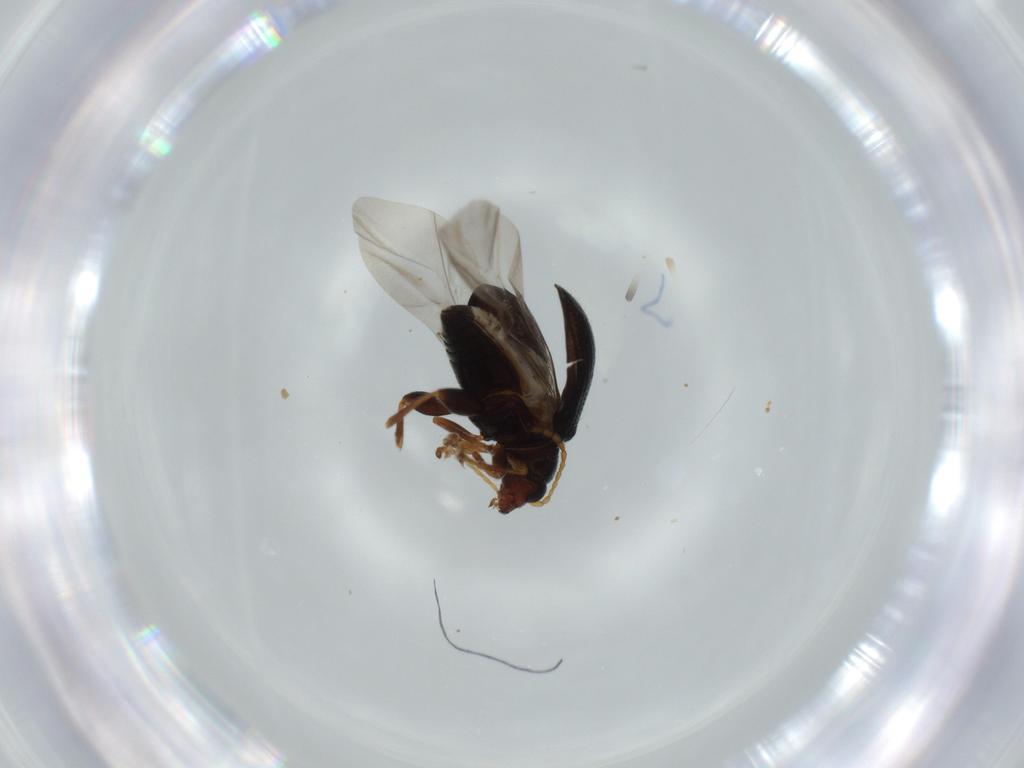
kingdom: Animalia
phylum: Arthropoda
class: Insecta
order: Coleoptera
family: Chrysomelidae
